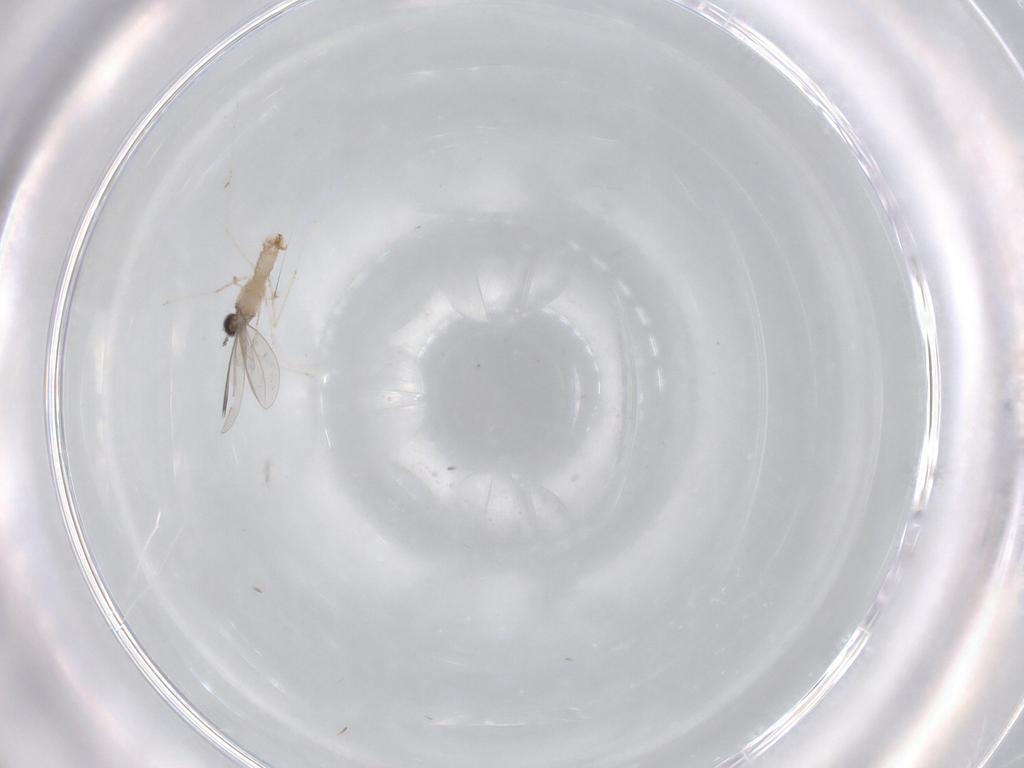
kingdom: Animalia
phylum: Arthropoda
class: Insecta
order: Diptera
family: Cecidomyiidae
